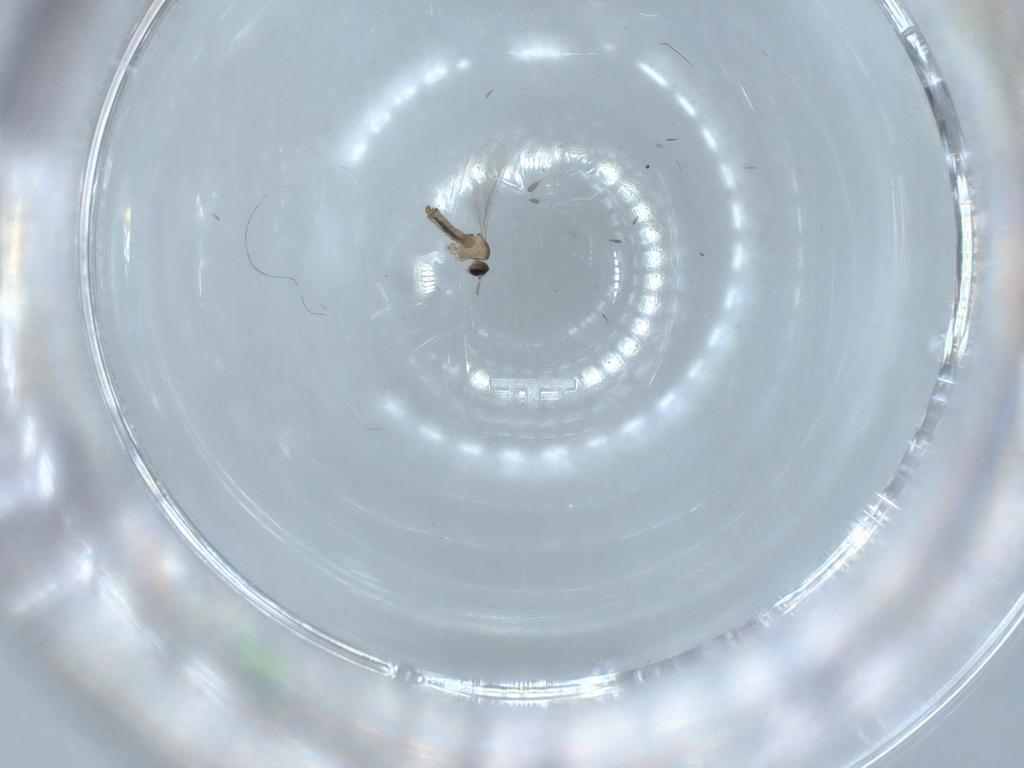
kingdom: Animalia
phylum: Arthropoda
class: Insecta
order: Diptera
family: Cecidomyiidae
